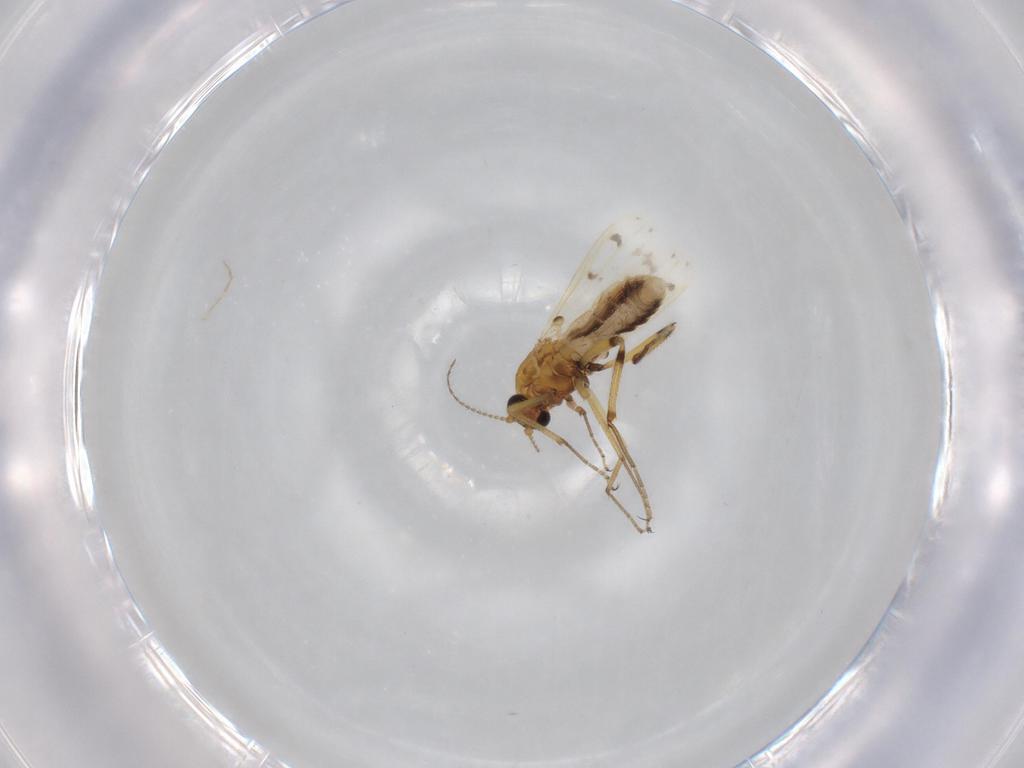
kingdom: Animalia
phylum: Arthropoda
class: Insecta
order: Diptera
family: Ceratopogonidae
